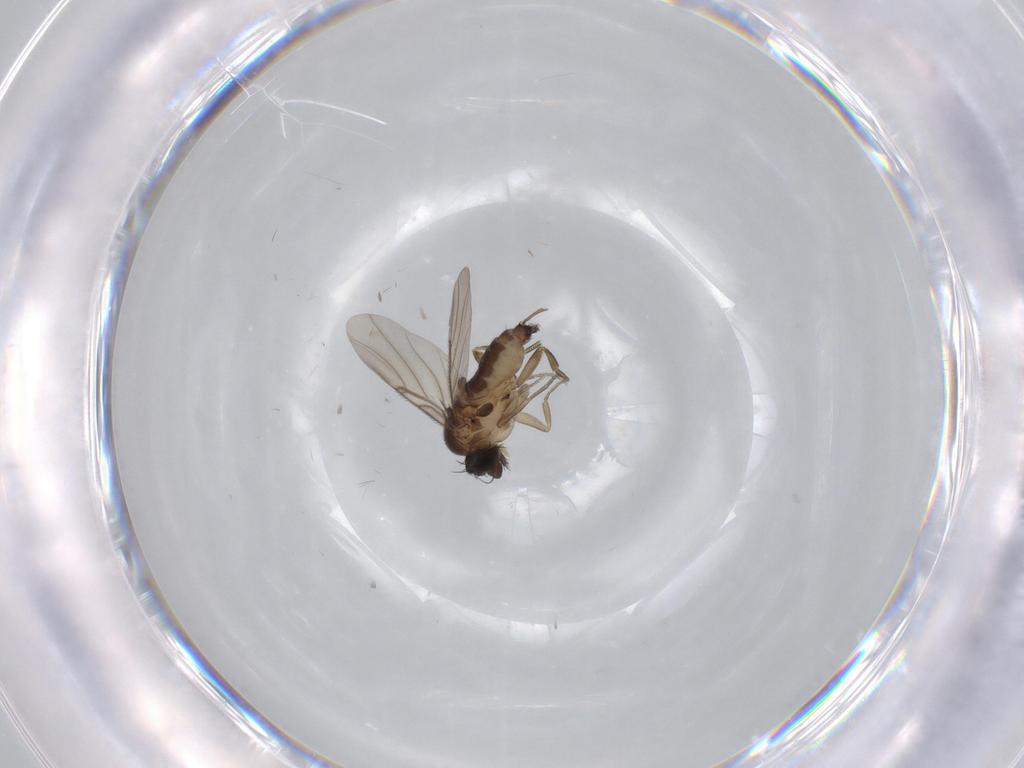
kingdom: Animalia
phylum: Arthropoda
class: Insecta
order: Diptera
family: Phoridae
